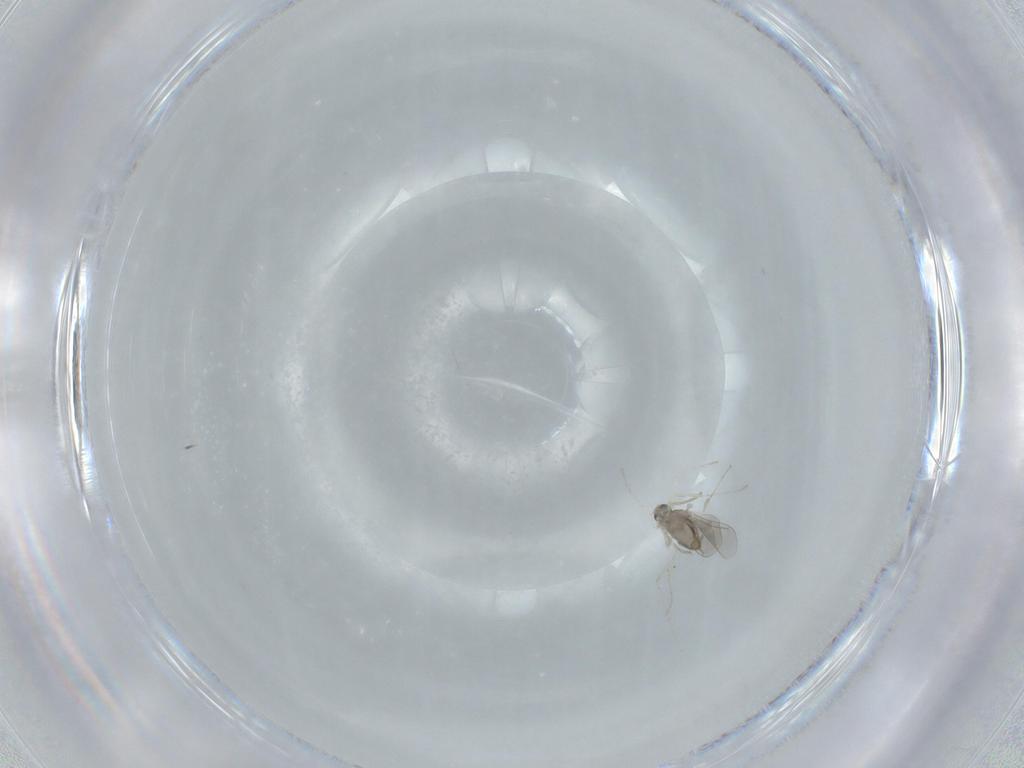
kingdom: Animalia
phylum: Arthropoda
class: Insecta
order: Diptera
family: Cecidomyiidae
